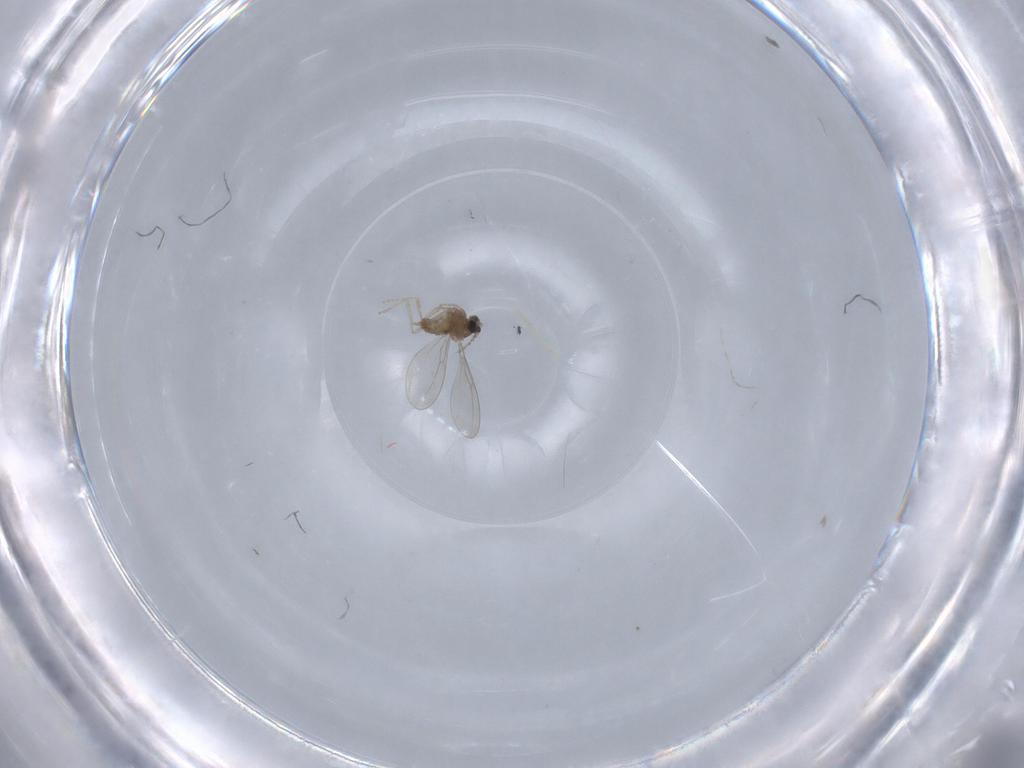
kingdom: Animalia
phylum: Arthropoda
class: Insecta
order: Diptera
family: Cecidomyiidae
